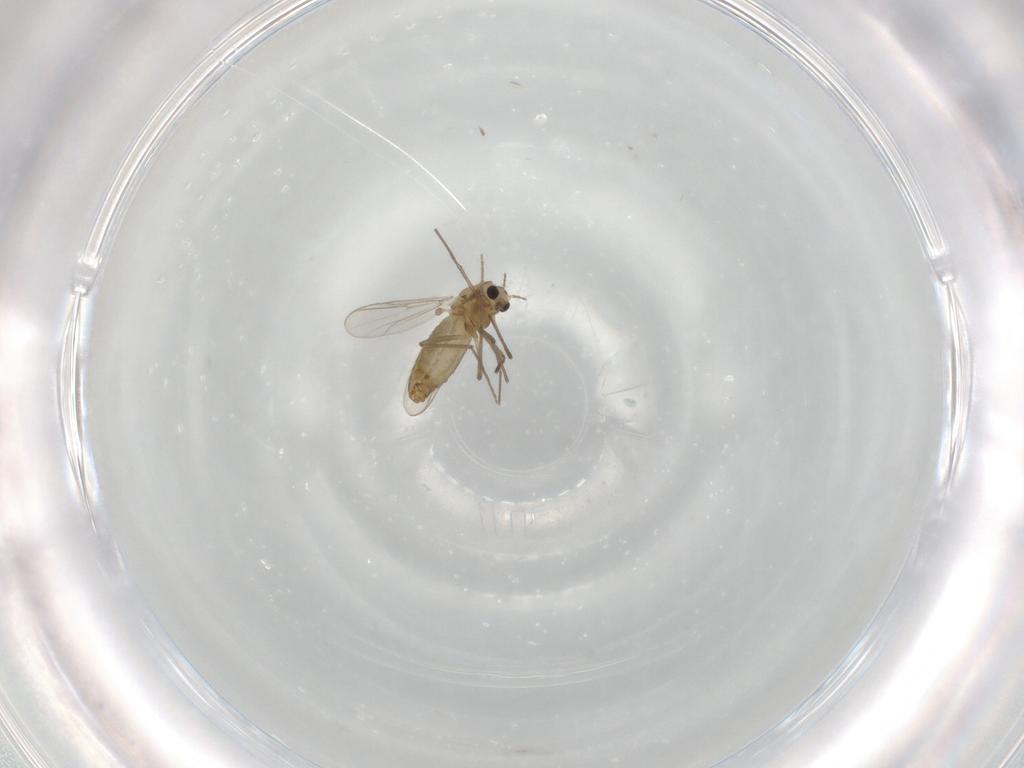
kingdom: Animalia
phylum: Arthropoda
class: Insecta
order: Diptera
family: Chironomidae
